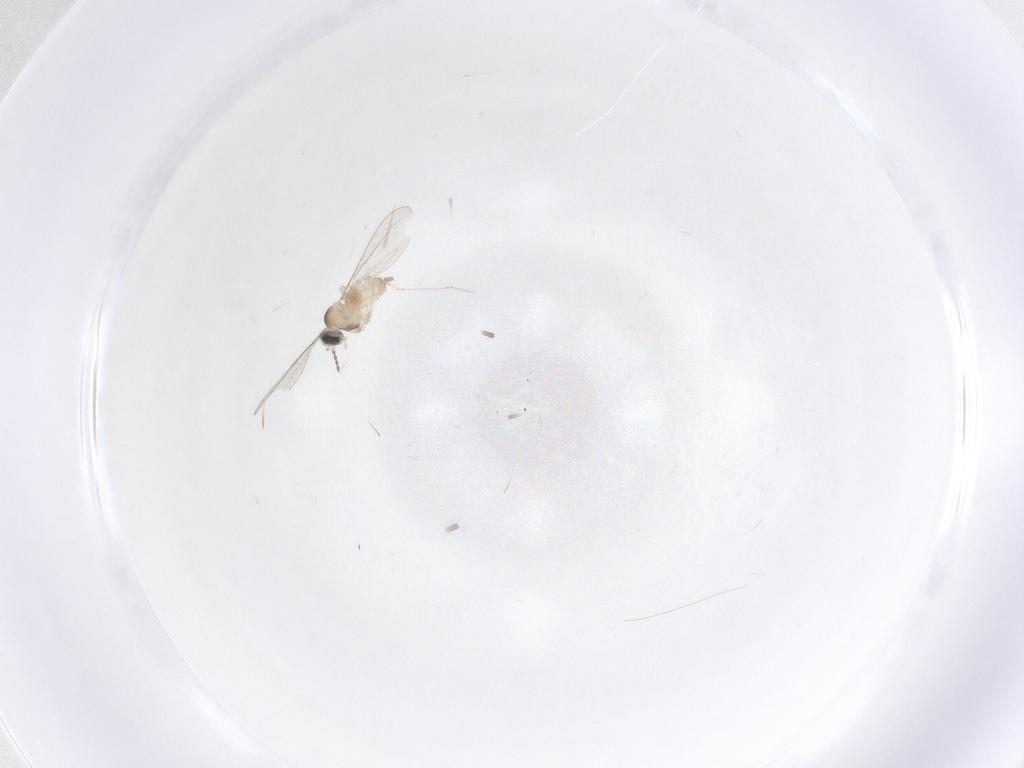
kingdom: Animalia
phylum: Arthropoda
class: Insecta
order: Diptera
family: Cecidomyiidae
